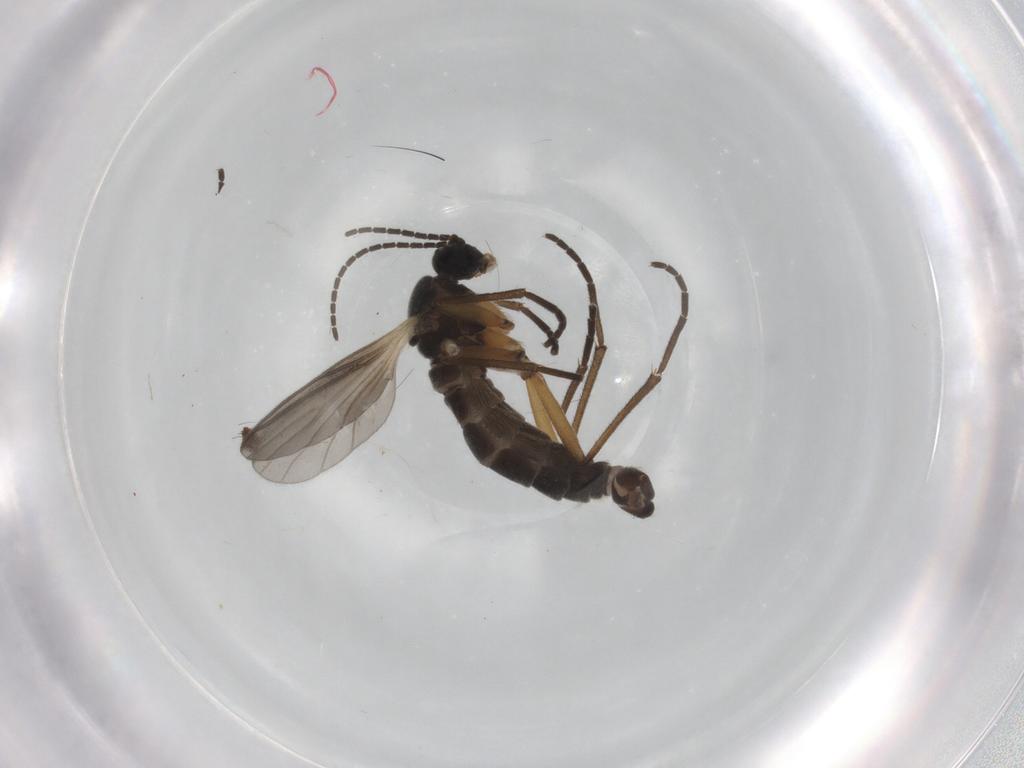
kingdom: Animalia
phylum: Arthropoda
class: Insecta
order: Diptera
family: Sciaridae
